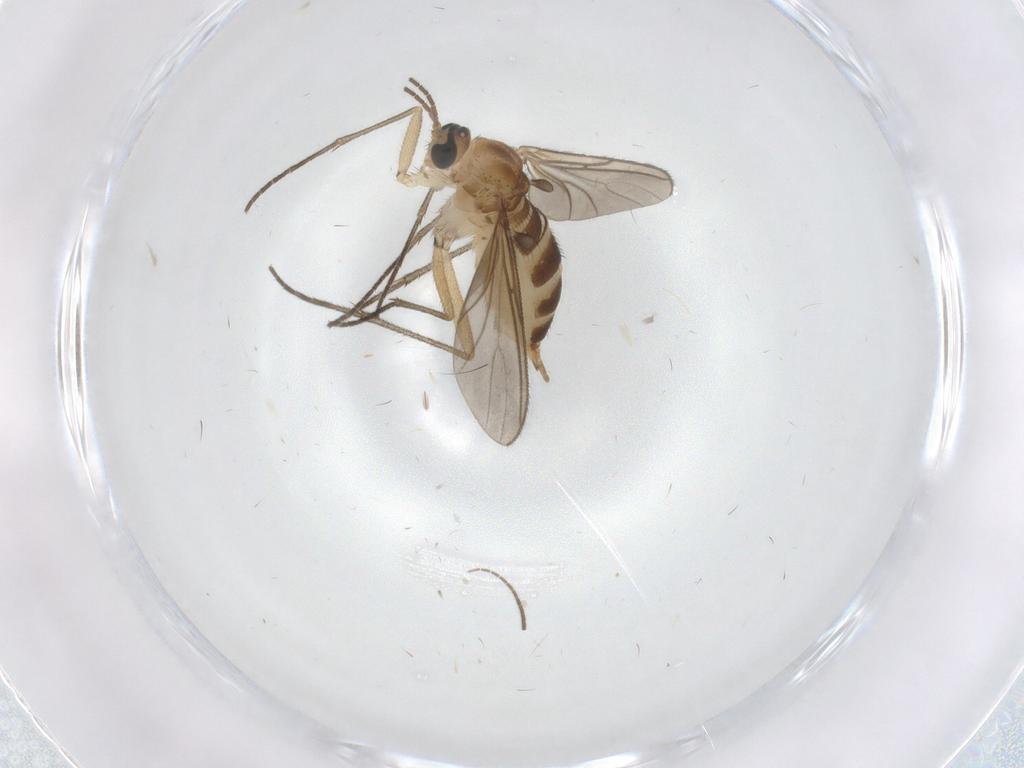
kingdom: Animalia
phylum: Arthropoda
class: Insecta
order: Diptera
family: Sciaridae
